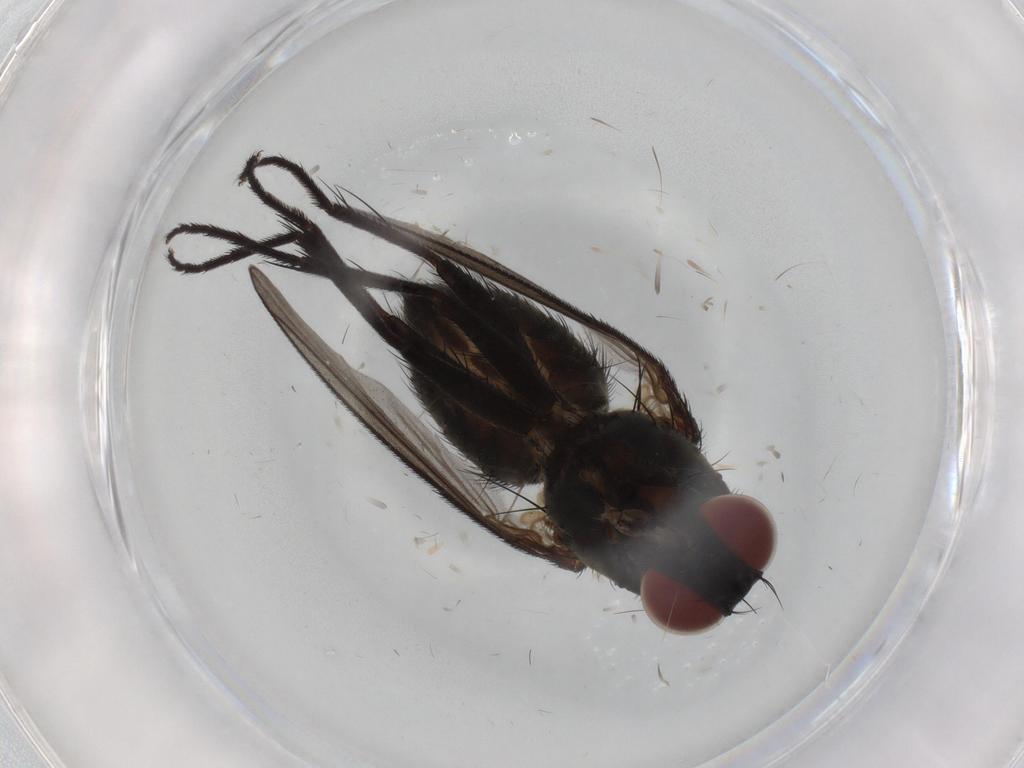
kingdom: Animalia
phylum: Arthropoda
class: Insecta
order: Diptera
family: Muscidae
